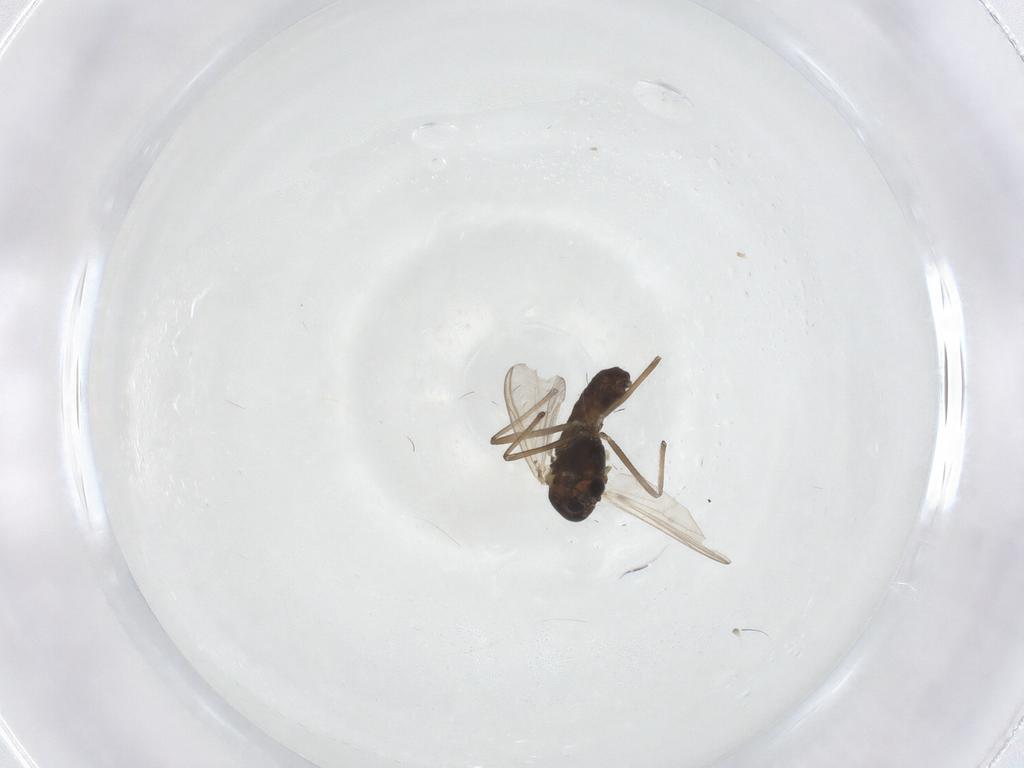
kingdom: Animalia
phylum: Arthropoda
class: Insecta
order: Diptera
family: Chironomidae
